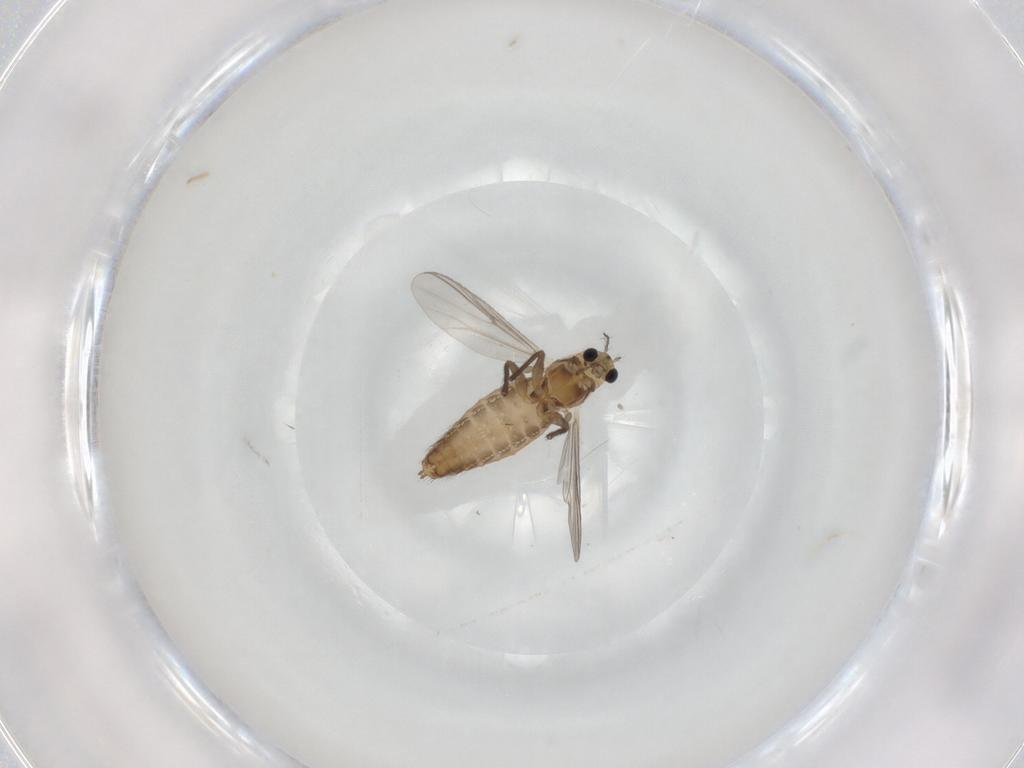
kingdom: Animalia
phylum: Arthropoda
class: Insecta
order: Diptera
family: Chironomidae
